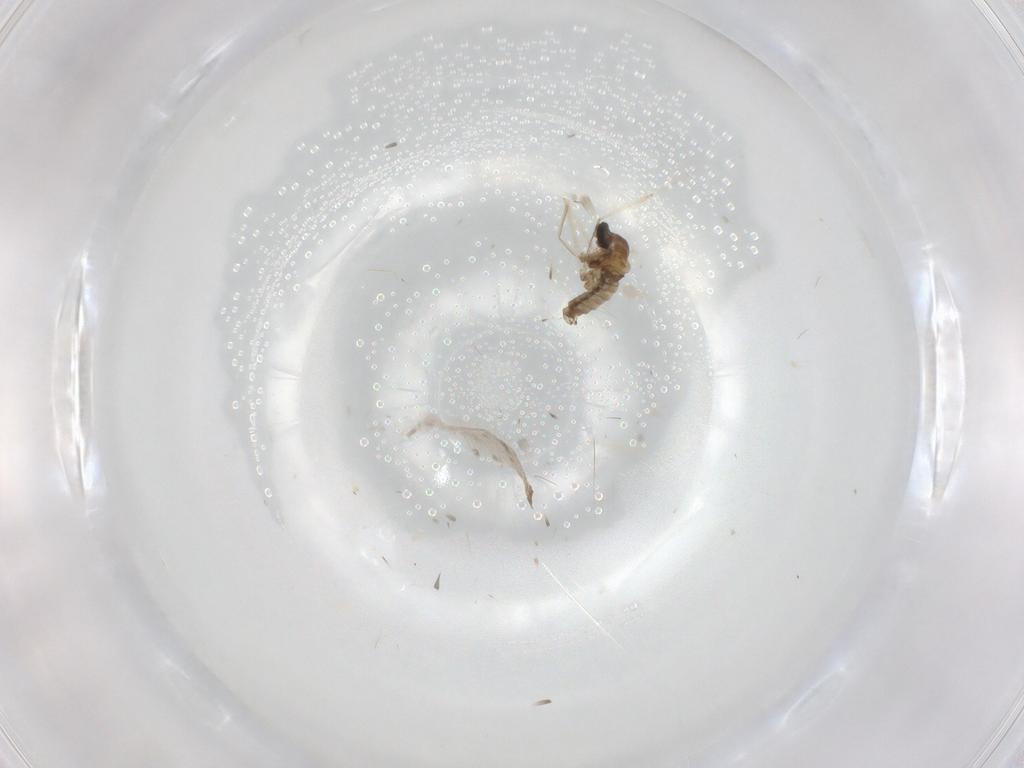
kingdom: Animalia
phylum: Arthropoda
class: Insecta
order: Diptera
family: Cecidomyiidae
